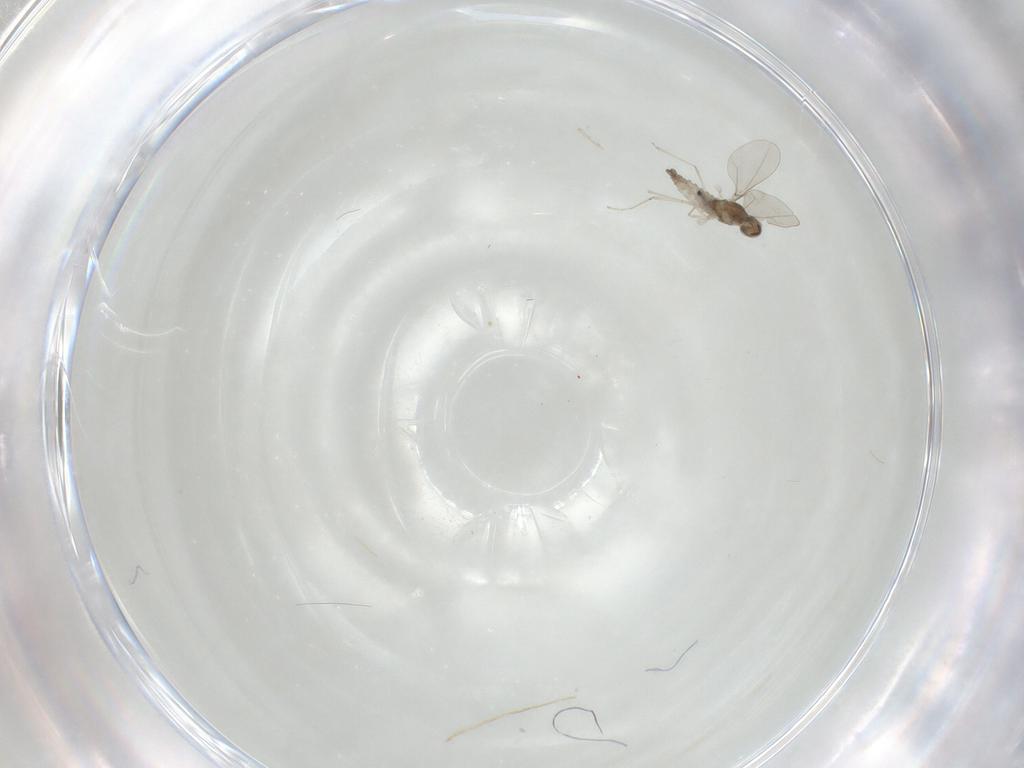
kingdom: Animalia
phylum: Arthropoda
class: Insecta
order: Diptera
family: Cecidomyiidae
